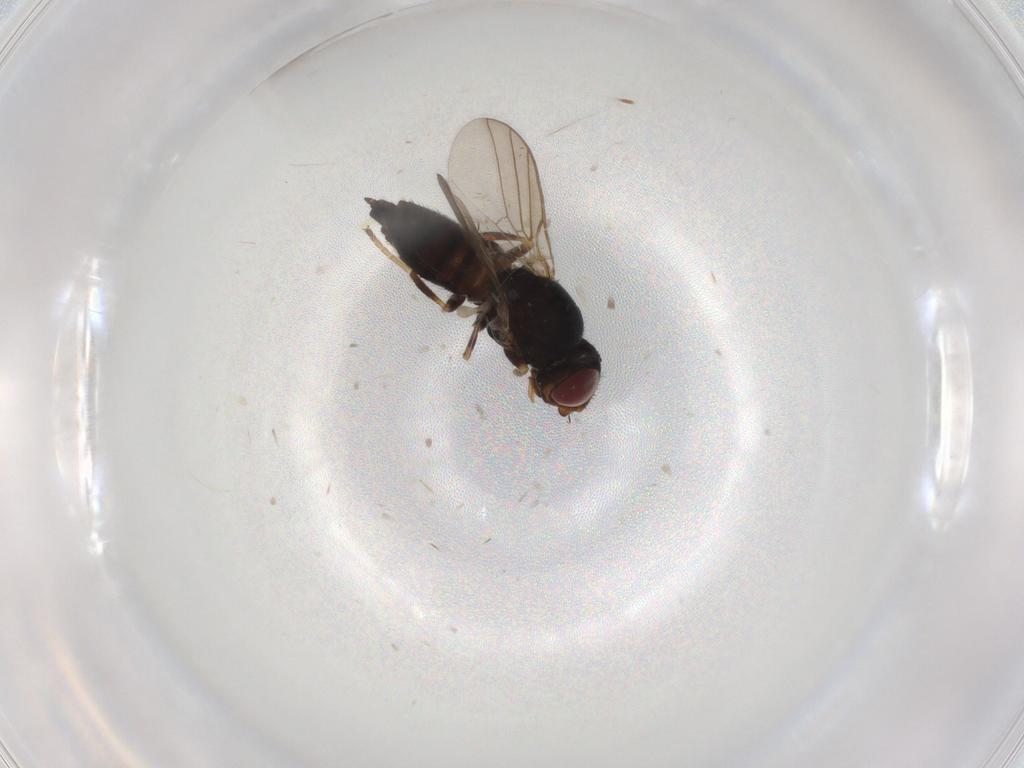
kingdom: Animalia
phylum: Arthropoda
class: Insecta
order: Diptera
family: Chloropidae
